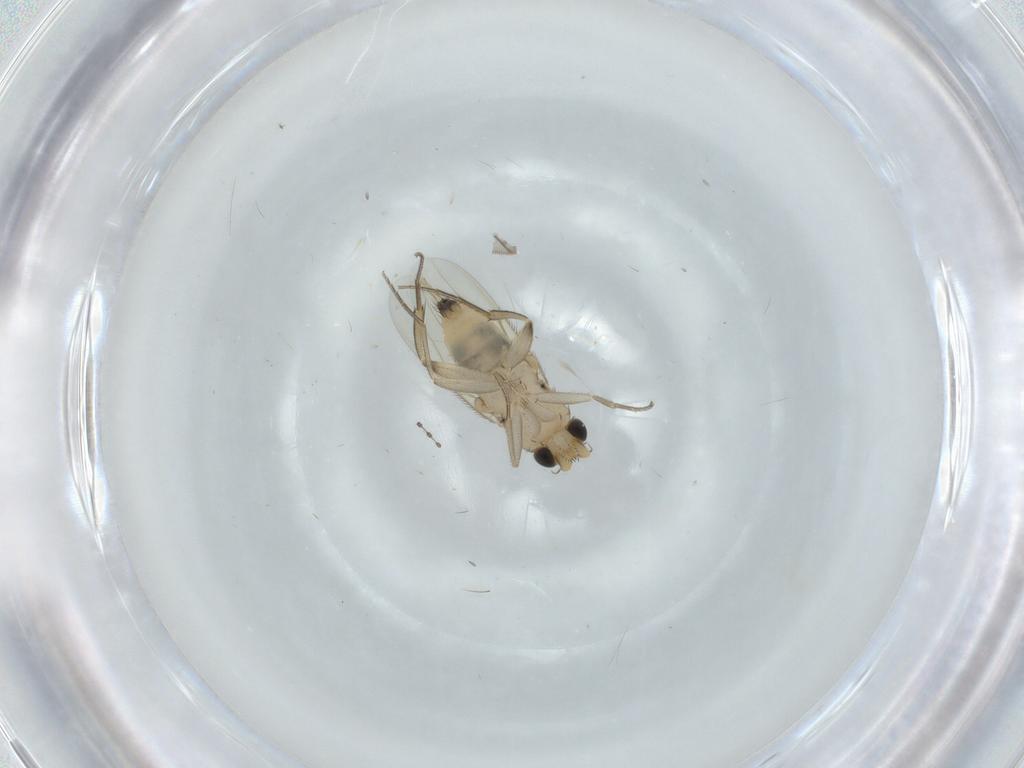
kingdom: Animalia
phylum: Arthropoda
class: Insecta
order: Diptera
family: Phoridae
